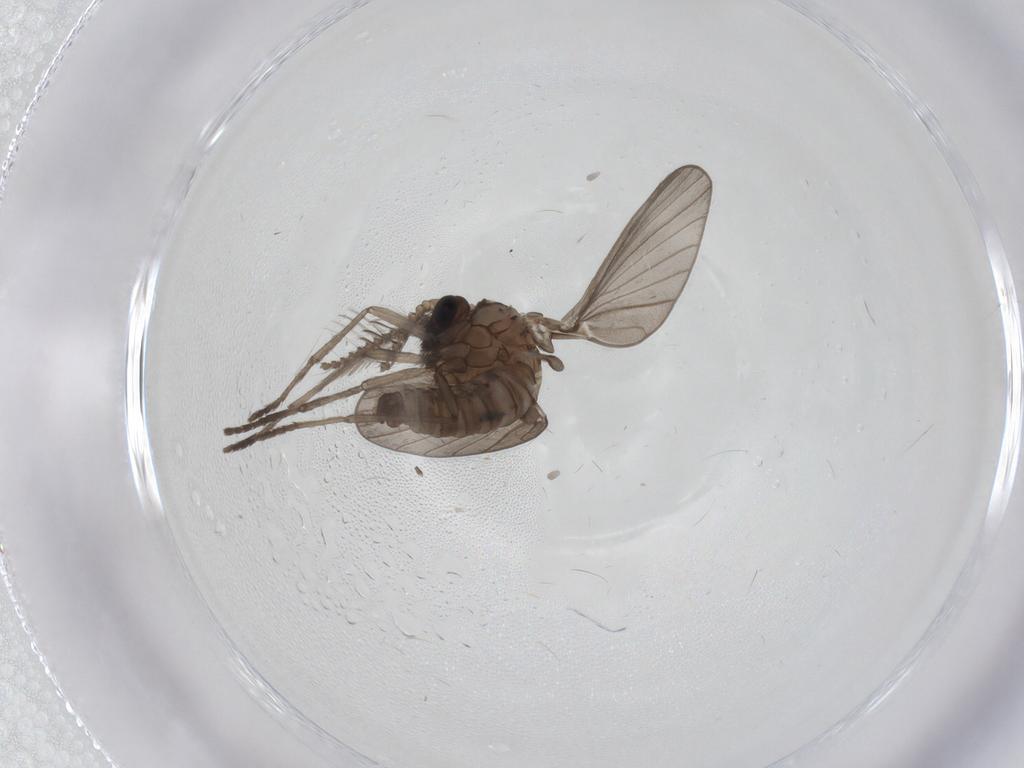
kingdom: Animalia
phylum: Arthropoda
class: Insecta
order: Diptera
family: Psychodidae
